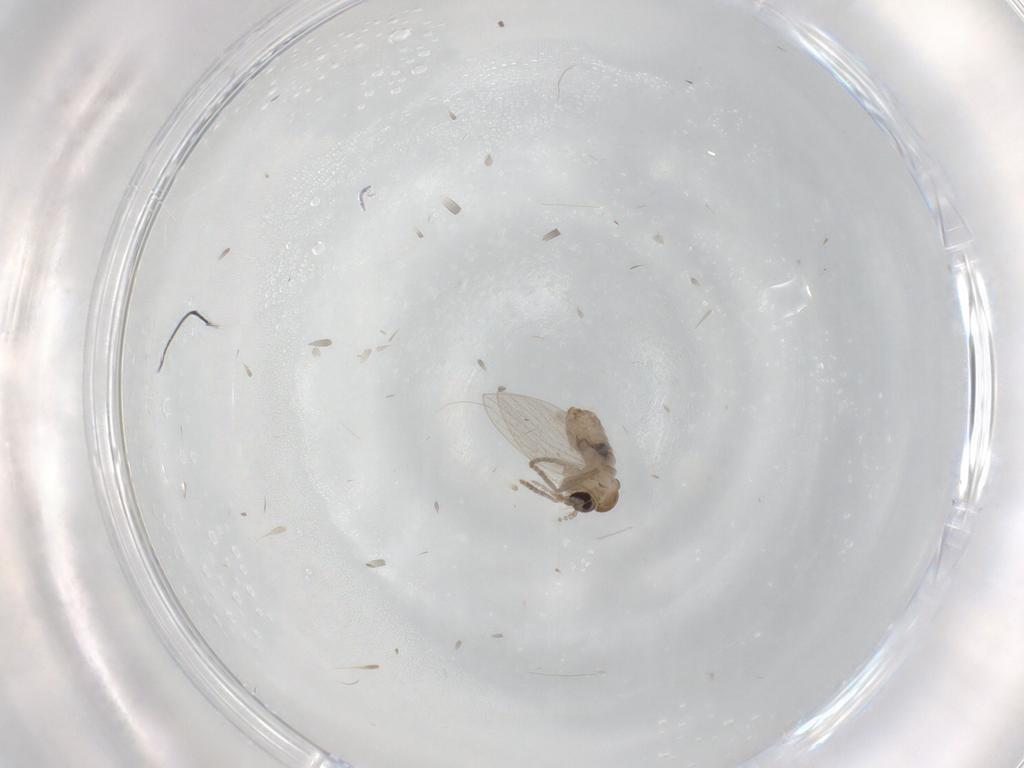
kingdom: Animalia
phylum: Arthropoda
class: Insecta
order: Diptera
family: Psychodidae
